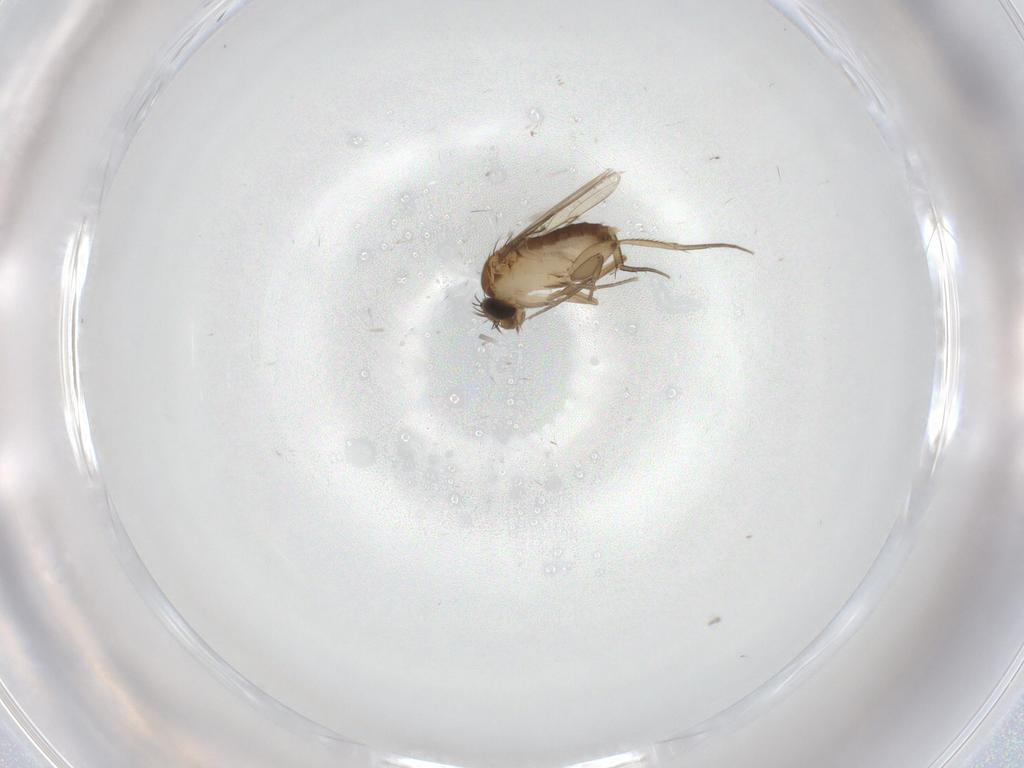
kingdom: Animalia
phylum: Arthropoda
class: Insecta
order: Diptera
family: Phoridae
